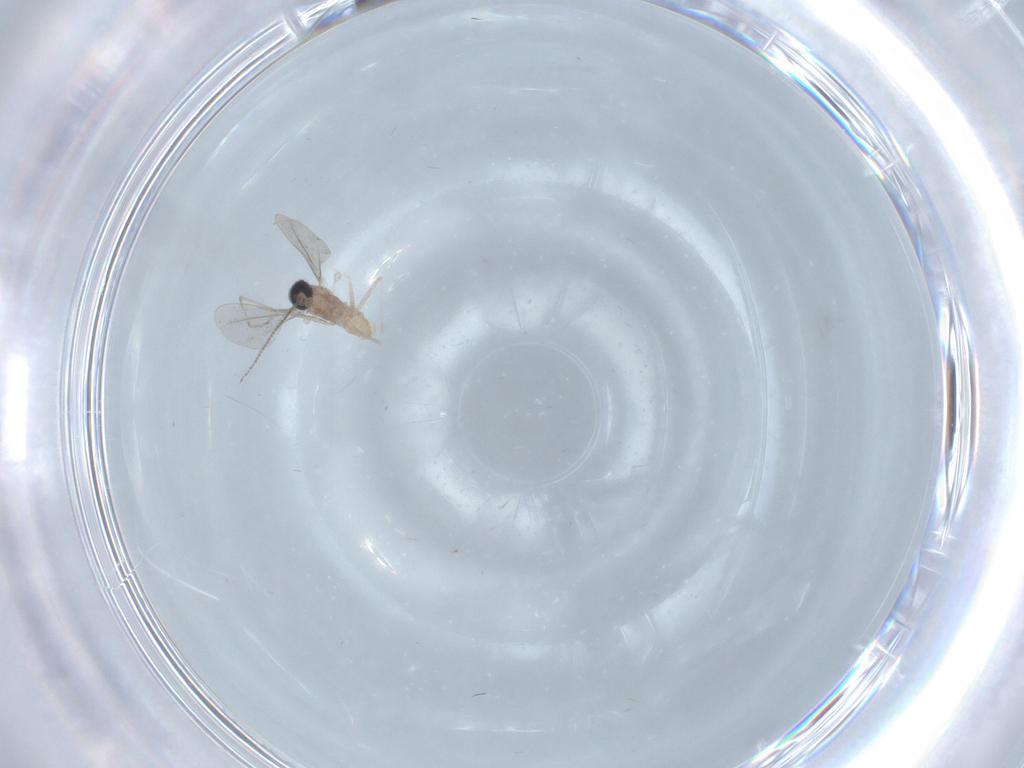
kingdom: Animalia
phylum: Arthropoda
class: Insecta
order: Diptera
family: Cecidomyiidae
